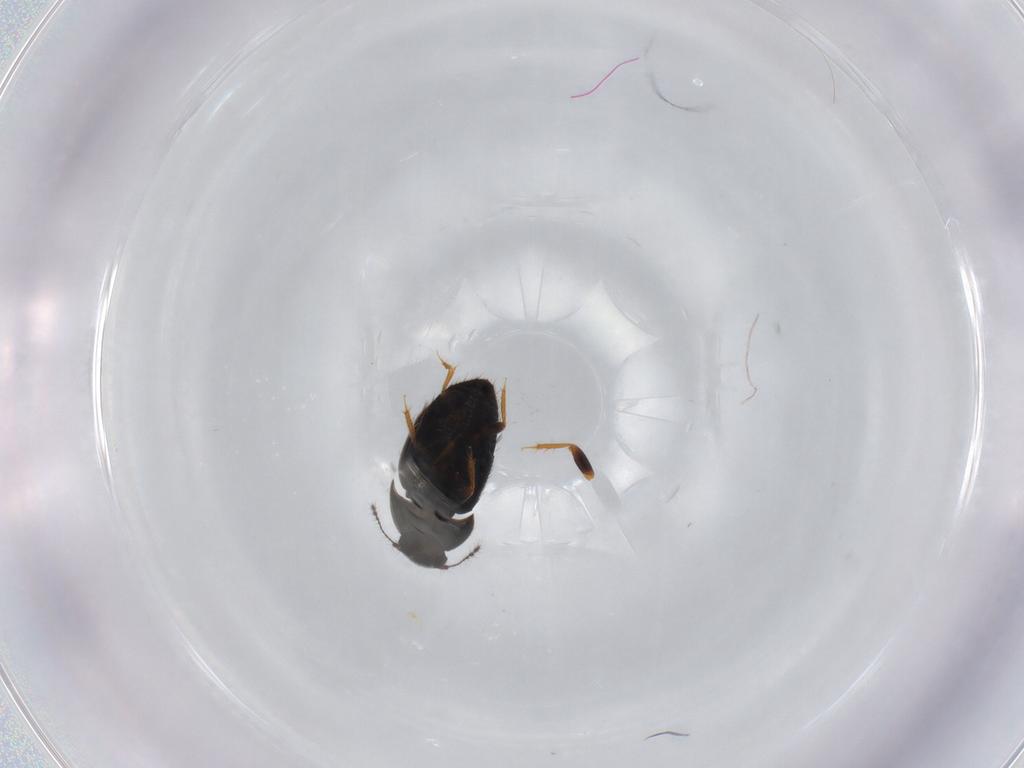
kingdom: Animalia
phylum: Arthropoda
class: Insecta
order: Coleoptera
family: Ptiliidae
